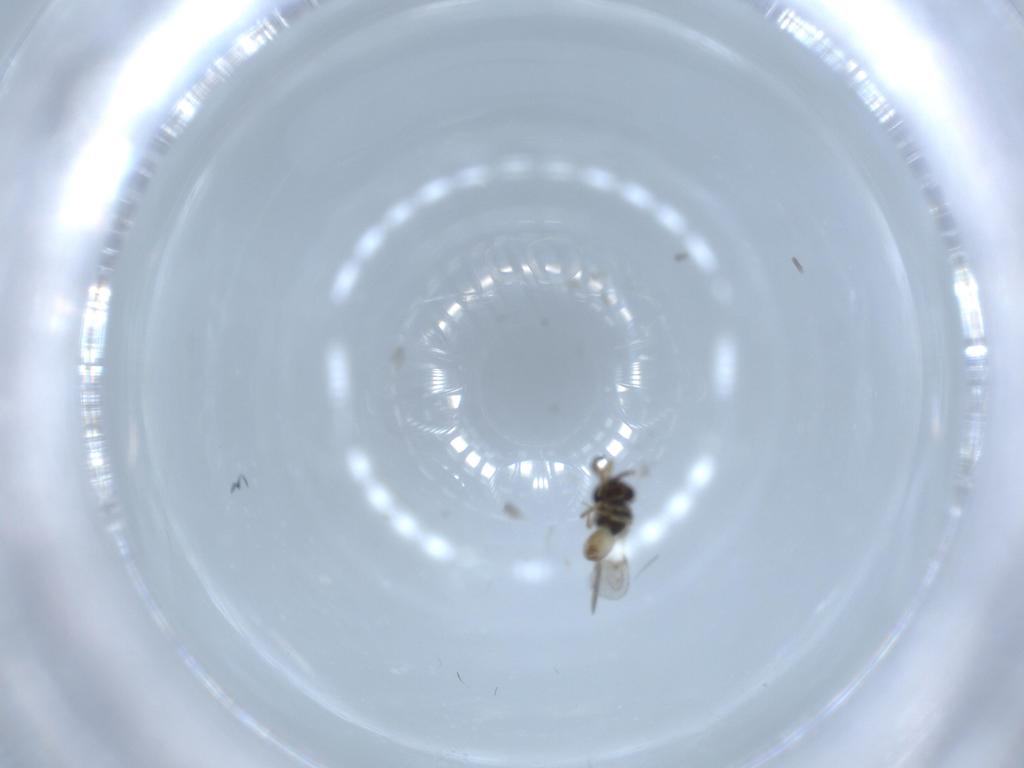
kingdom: Animalia
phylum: Arthropoda
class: Insecta
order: Hymenoptera
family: Scelionidae
